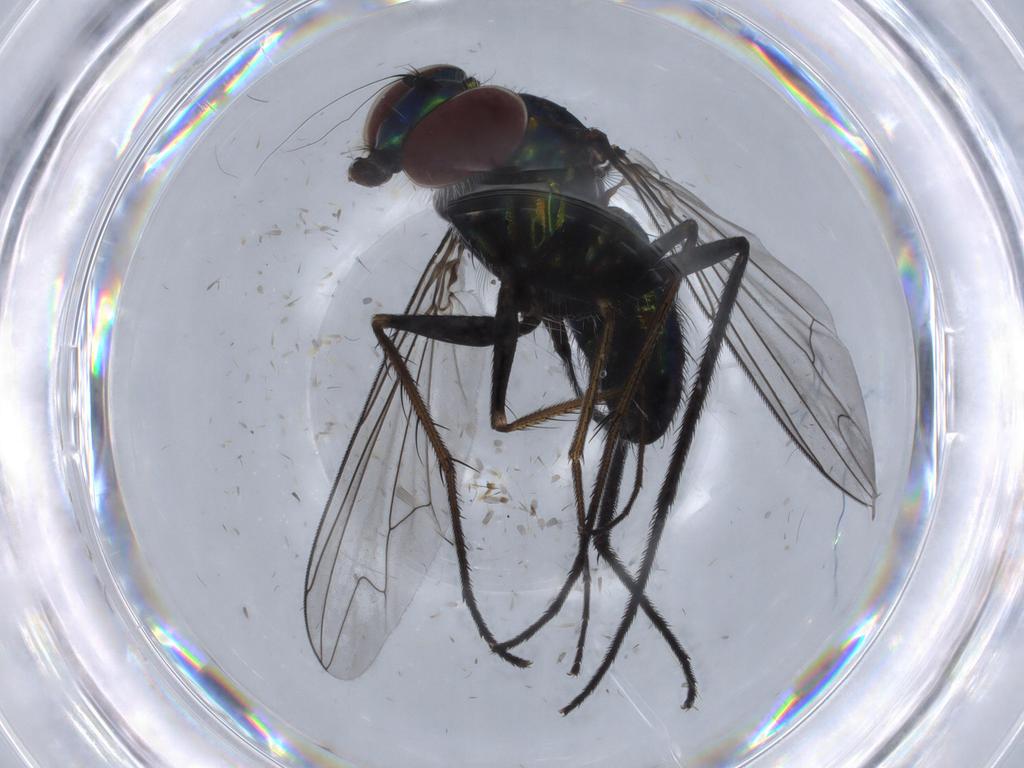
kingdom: Animalia
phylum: Arthropoda
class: Insecta
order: Diptera
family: Dolichopodidae
